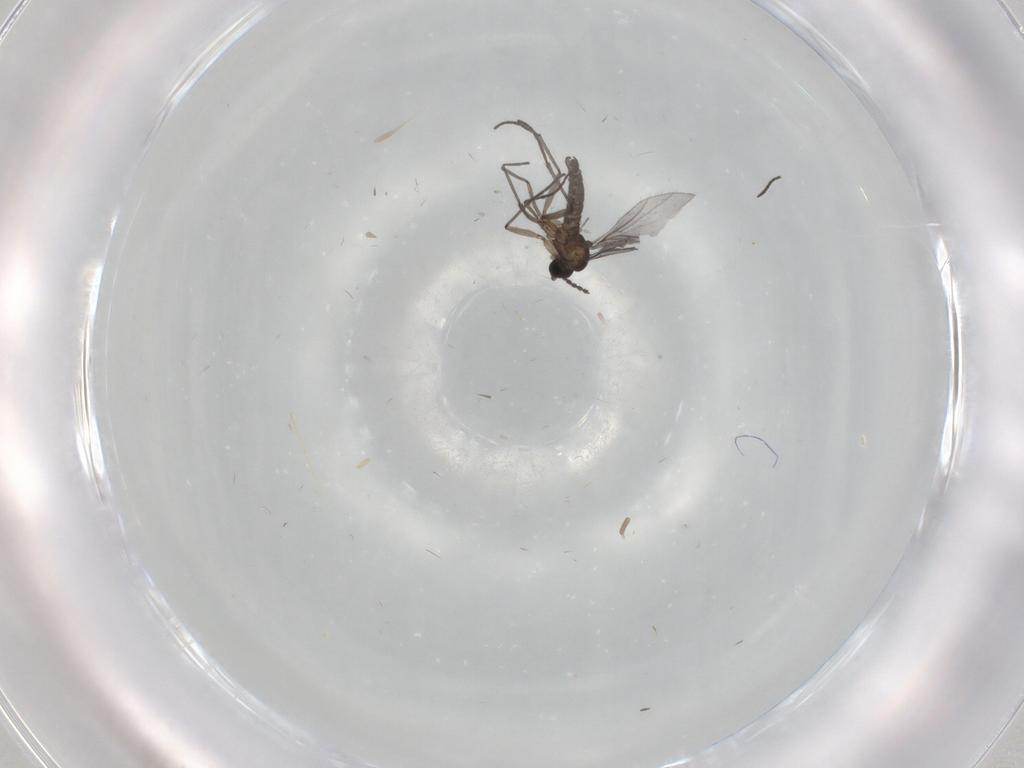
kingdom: Animalia
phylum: Arthropoda
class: Insecta
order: Diptera
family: Sciaridae
